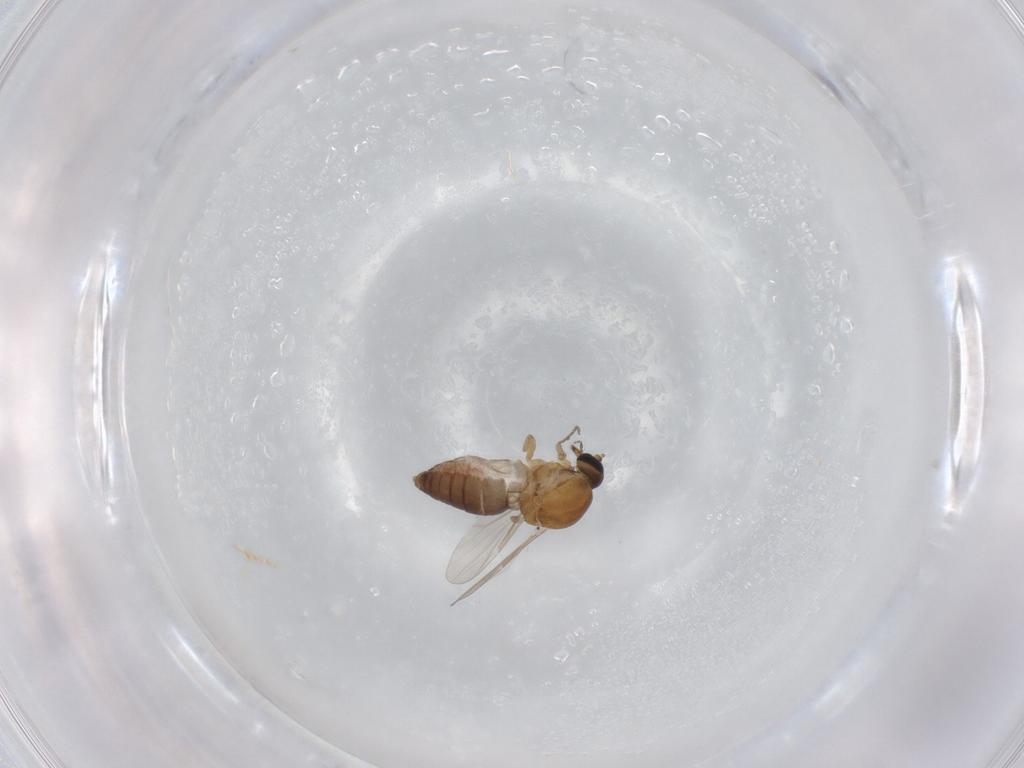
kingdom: Animalia
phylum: Arthropoda
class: Insecta
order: Diptera
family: Ceratopogonidae
